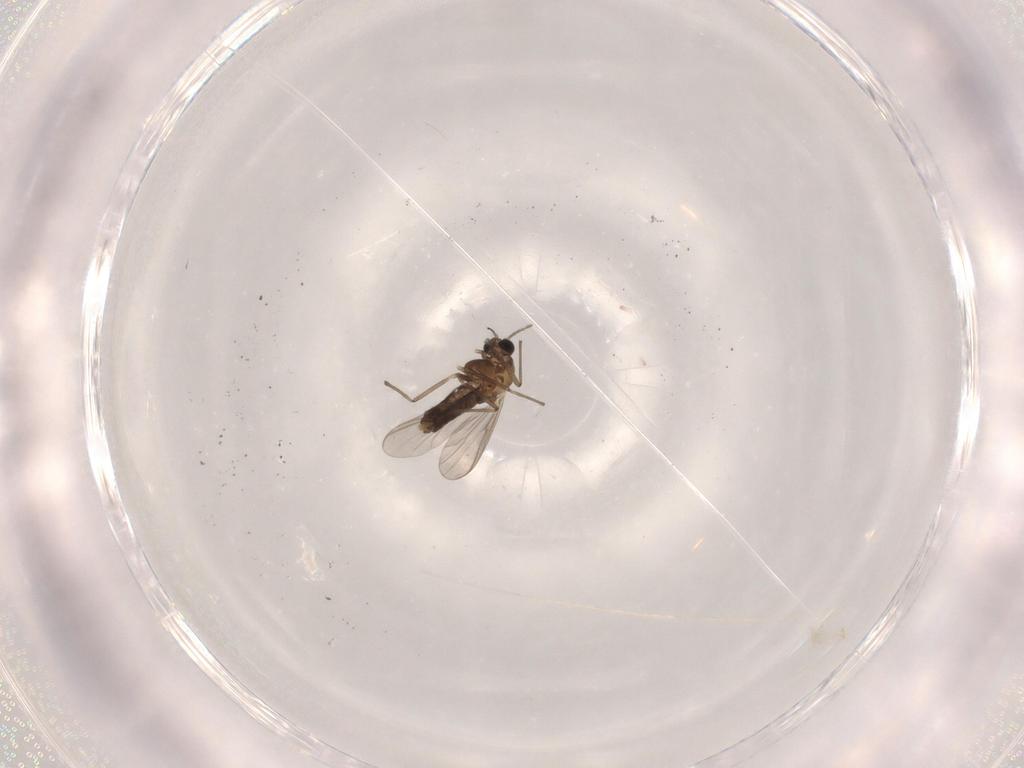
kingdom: Animalia
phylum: Arthropoda
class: Insecta
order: Diptera
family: Chironomidae
